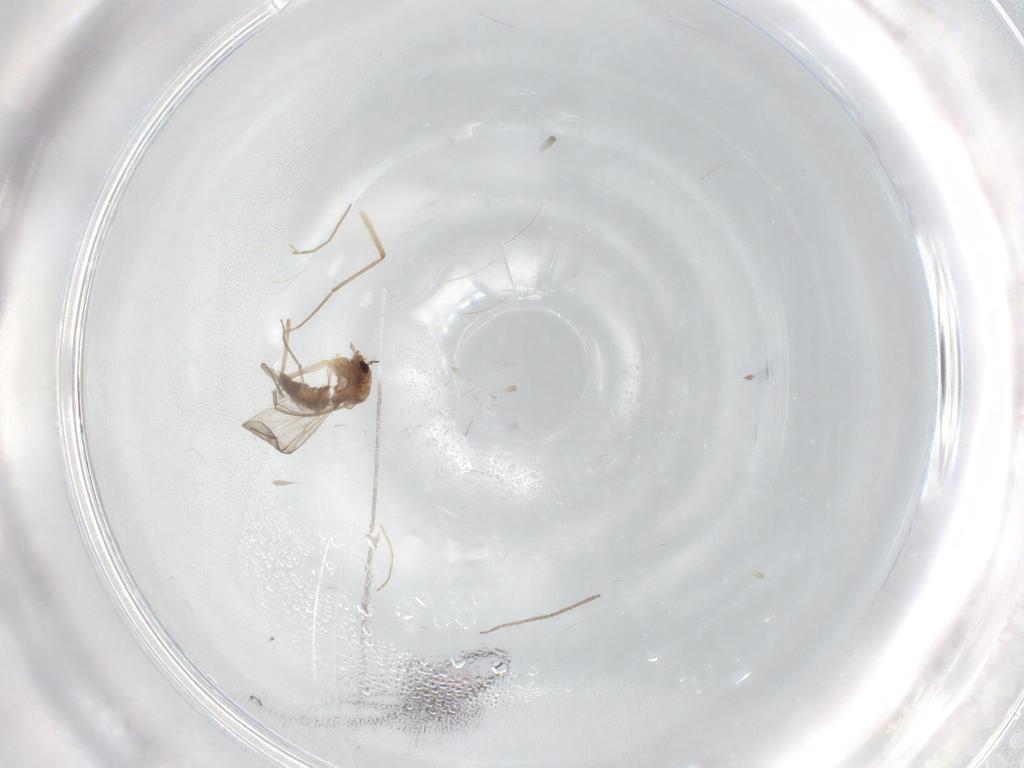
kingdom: Animalia
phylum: Arthropoda
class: Insecta
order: Diptera
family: Chironomidae
